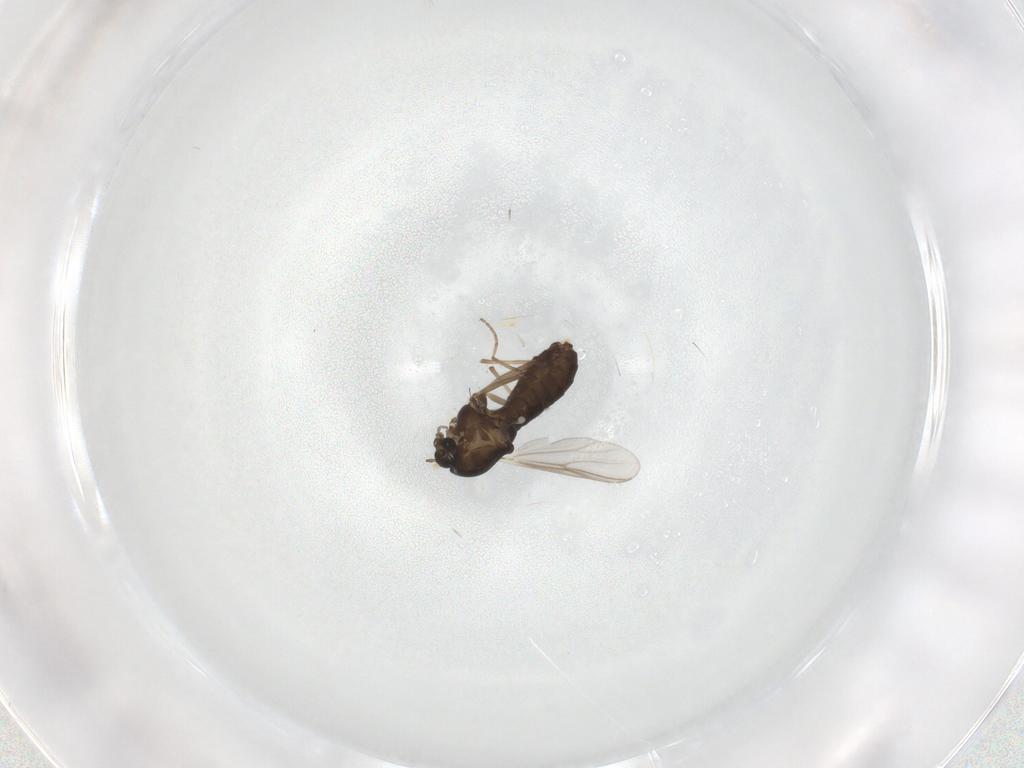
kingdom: Animalia
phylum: Arthropoda
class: Insecta
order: Diptera
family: Chironomidae
